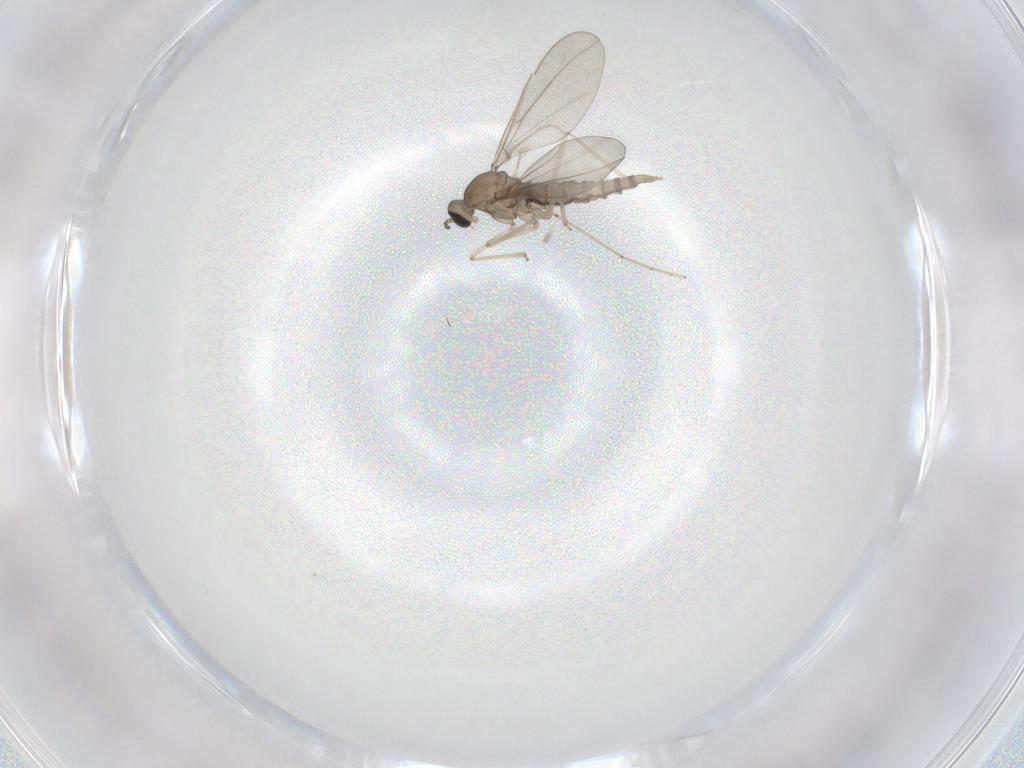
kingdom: Animalia
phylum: Arthropoda
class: Insecta
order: Diptera
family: Cecidomyiidae
